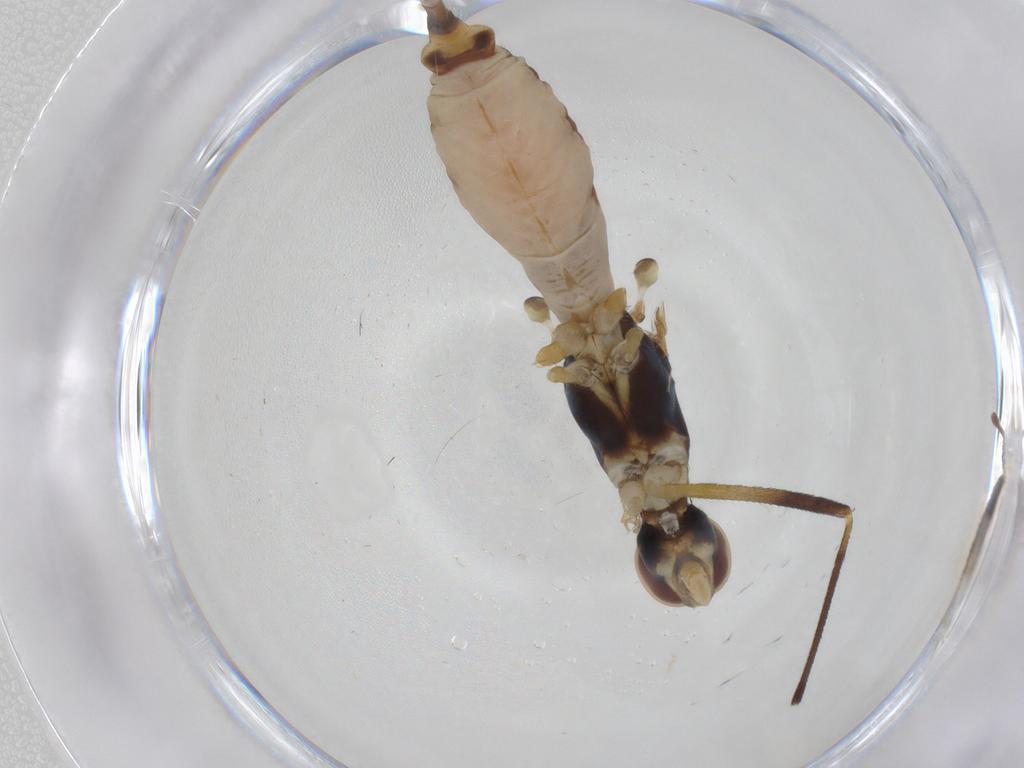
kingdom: Animalia
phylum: Arthropoda
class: Insecta
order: Diptera
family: Micropezidae
